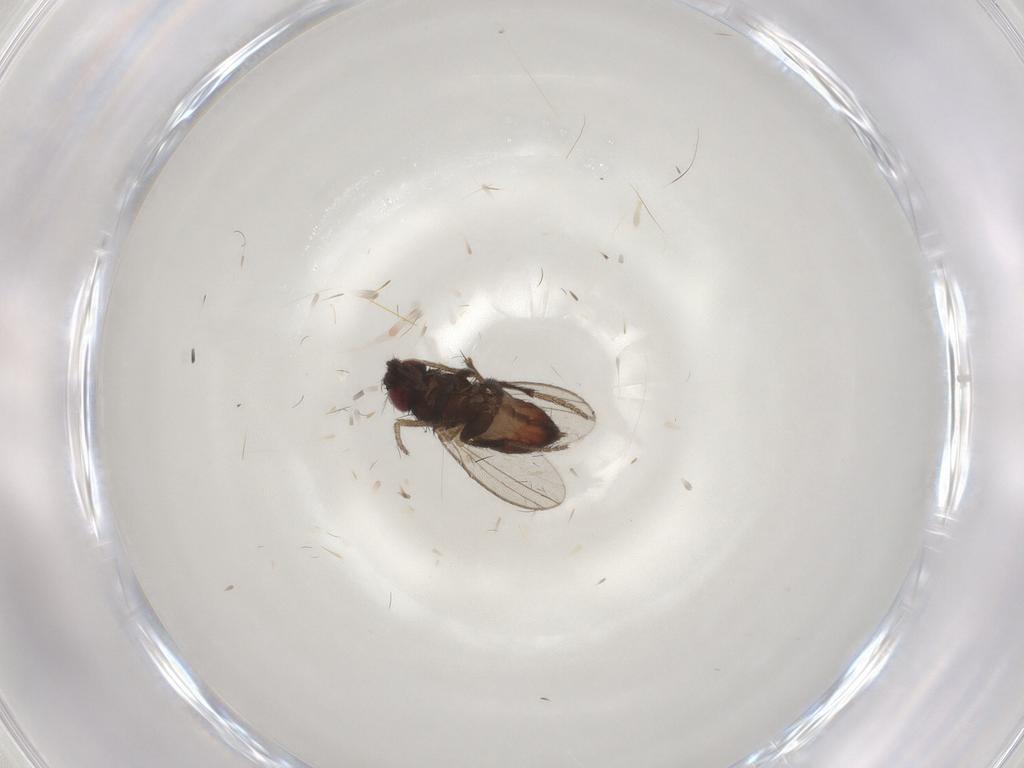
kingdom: Animalia
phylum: Arthropoda
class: Insecta
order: Diptera
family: Milichiidae
